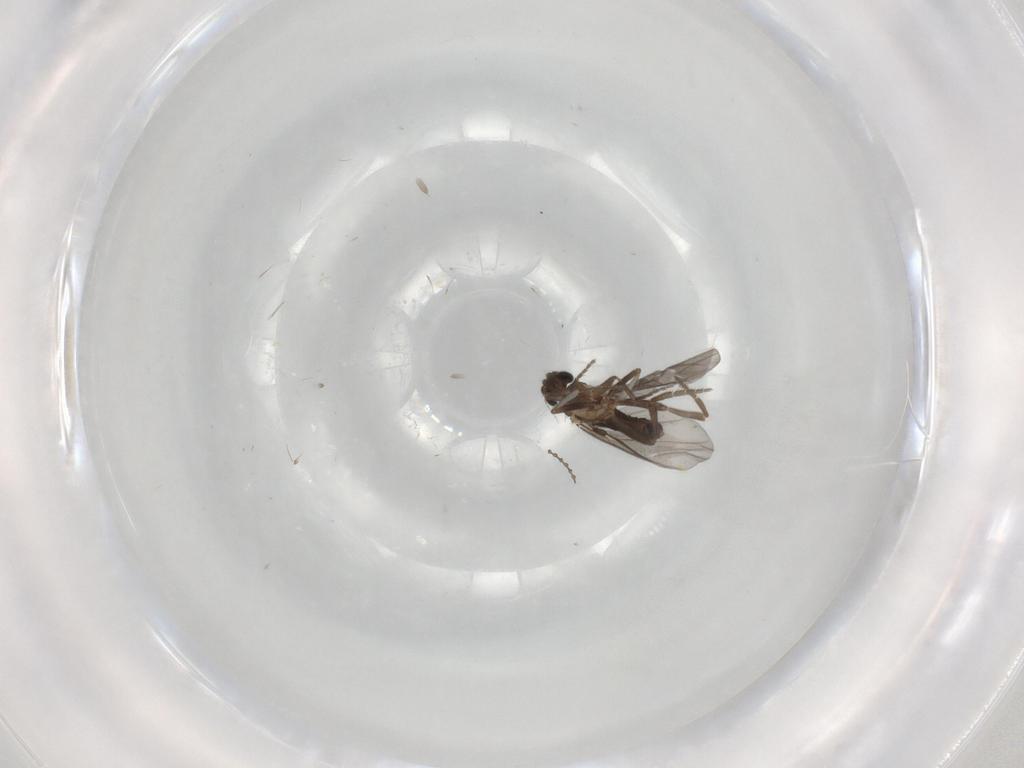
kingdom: Animalia
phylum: Arthropoda
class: Insecta
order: Diptera
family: Cecidomyiidae
